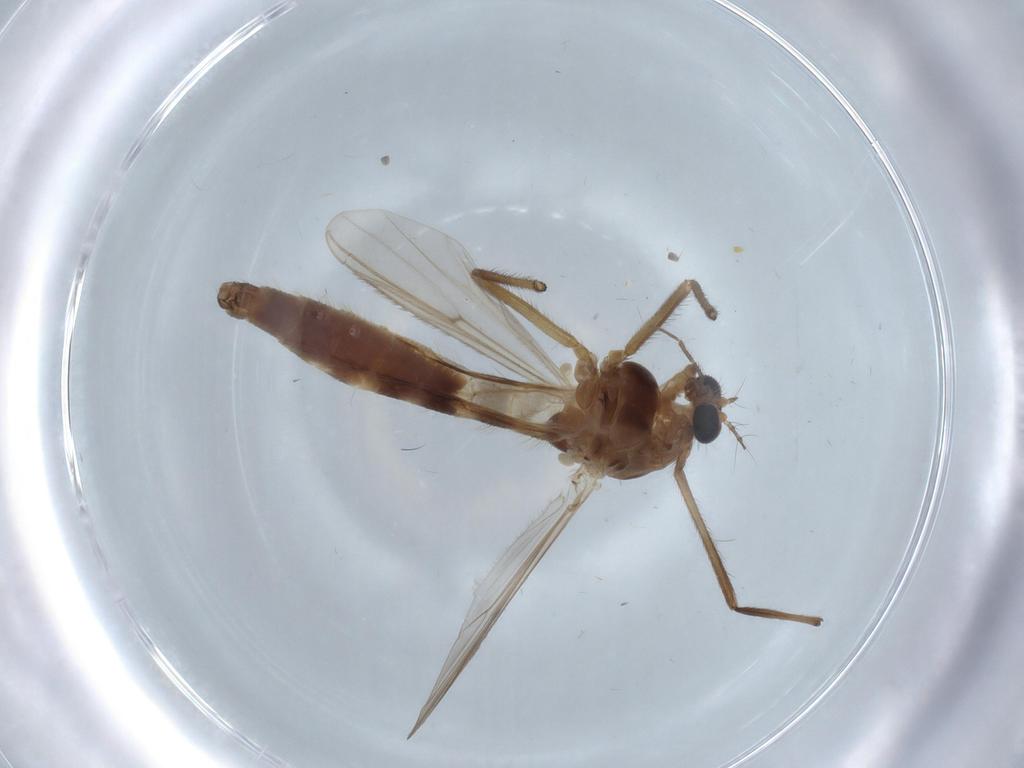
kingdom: Animalia
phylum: Arthropoda
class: Insecta
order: Diptera
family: Chironomidae
